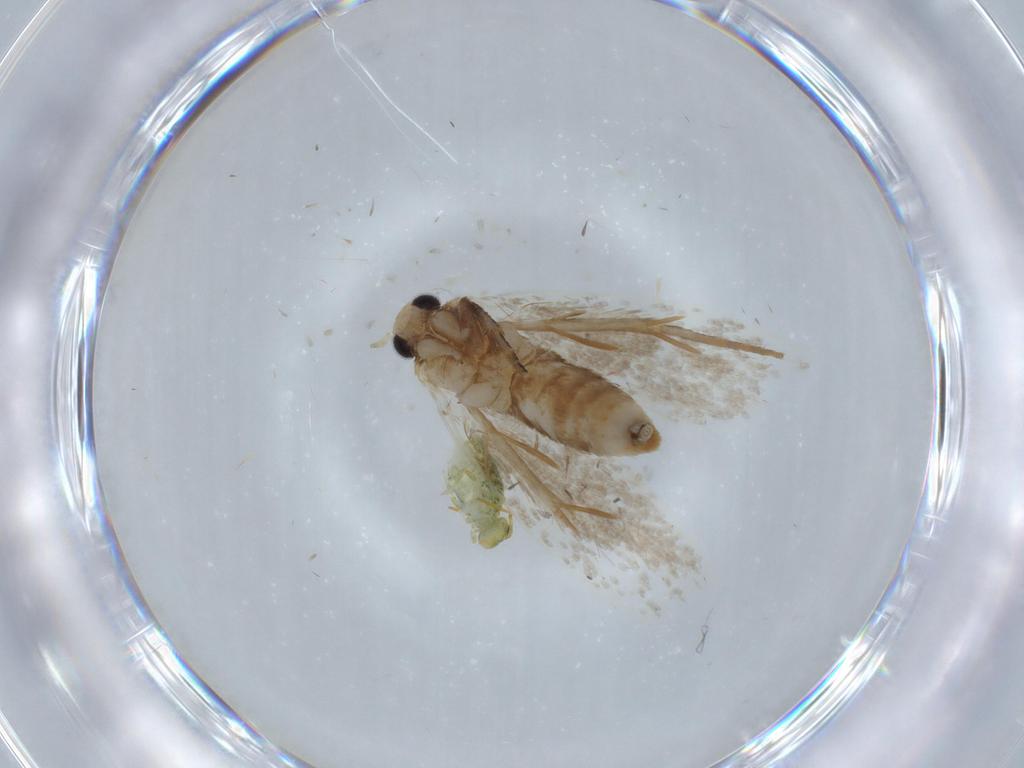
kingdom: Animalia
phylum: Arthropoda
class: Insecta
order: Lepidoptera
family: Tineidae
